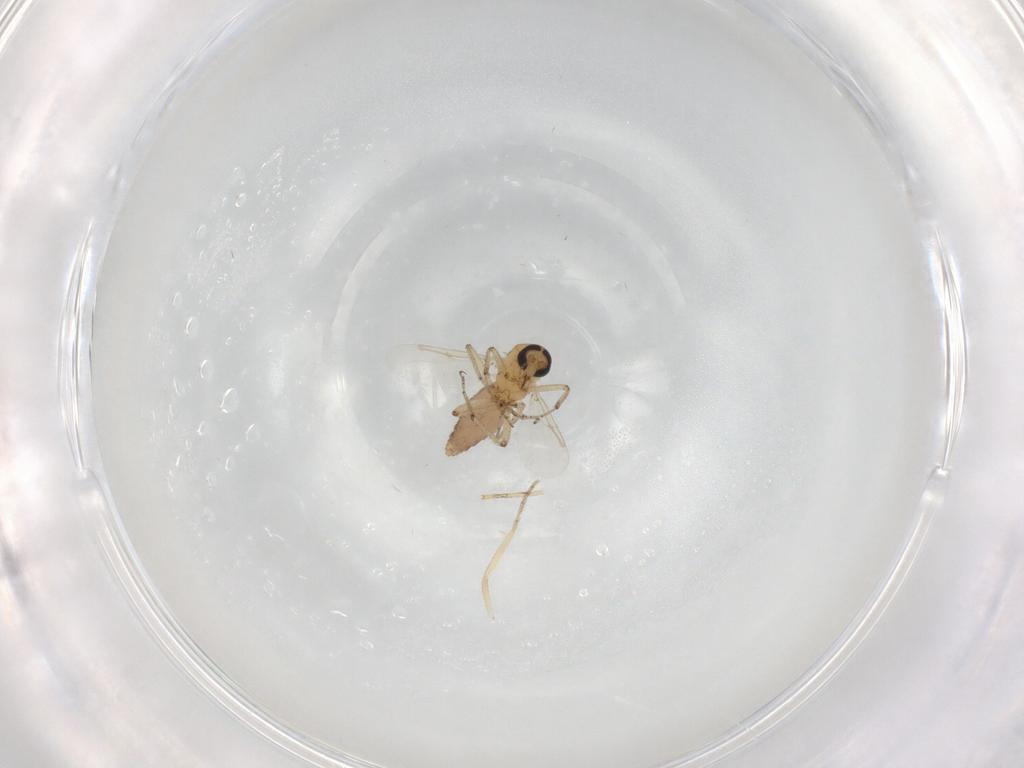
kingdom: Animalia
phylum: Arthropoda
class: Insecta
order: Diptera
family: Ceratopogonidae
